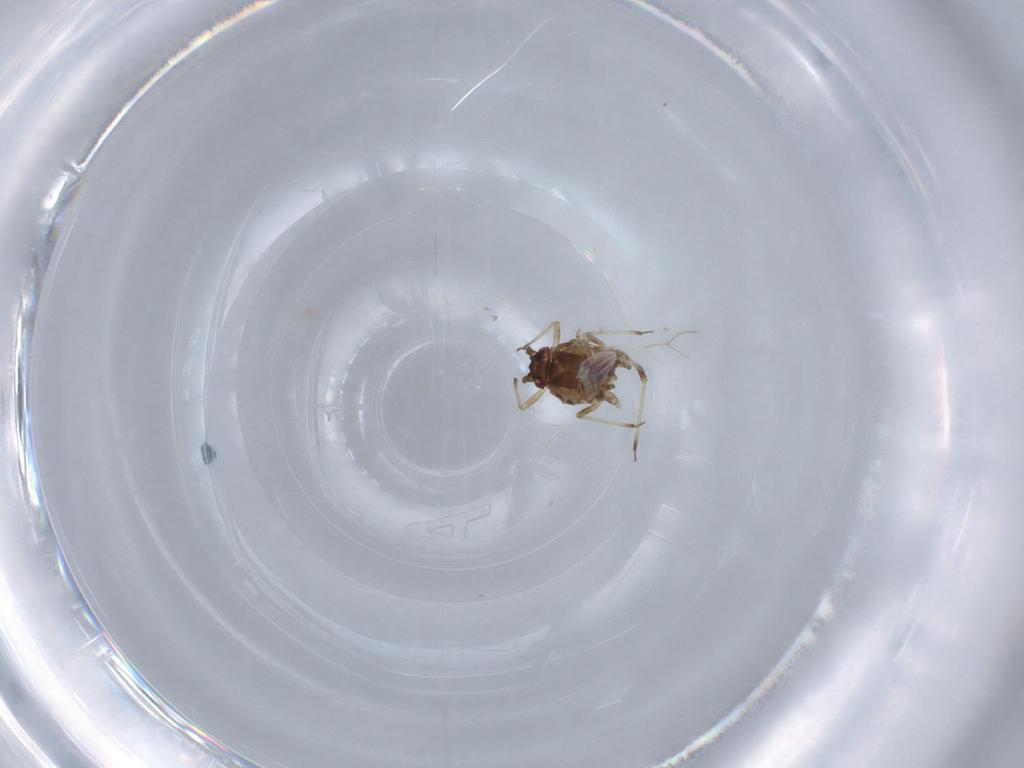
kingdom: Animalia
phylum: Arthropoda
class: Insecta
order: Hemiptera
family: Aphididae
